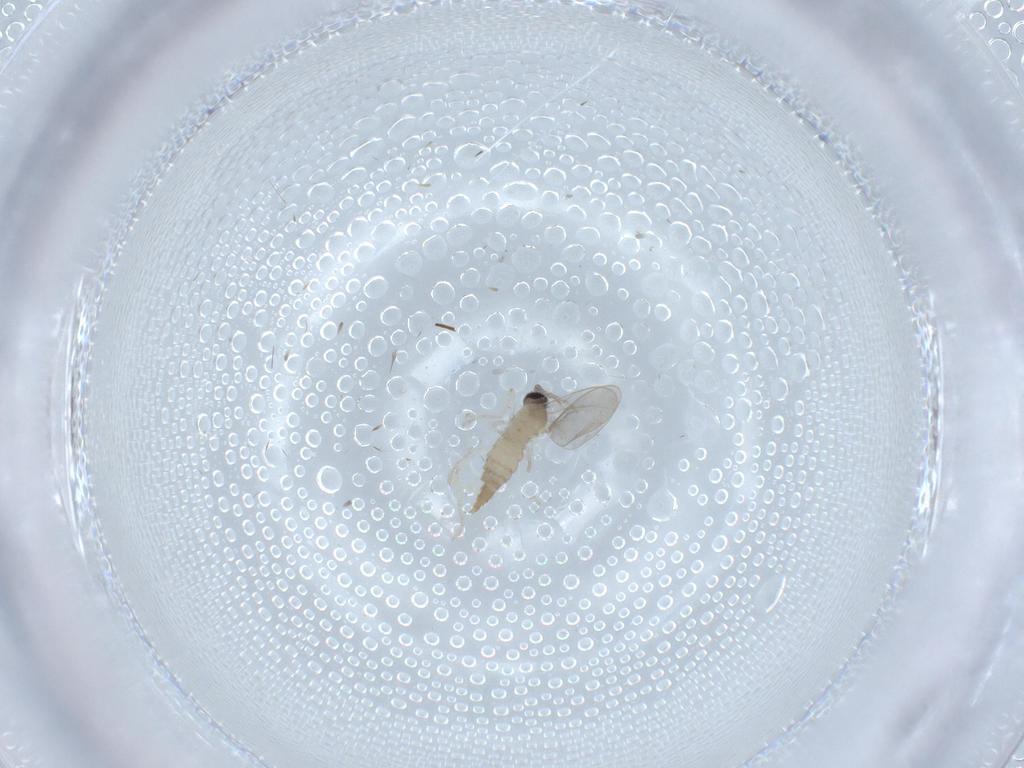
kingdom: Animalia
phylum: Arthropoda
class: Insecta
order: Diptera
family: Cecidomyiidae
